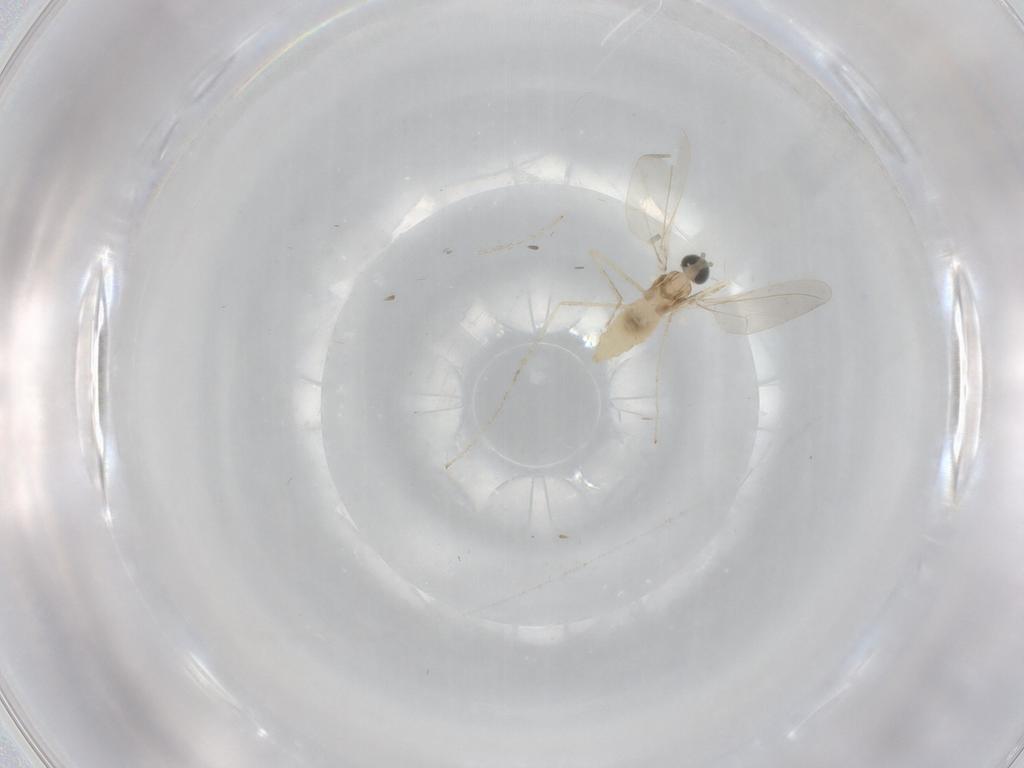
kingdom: Animalia
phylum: Arthropoda
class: Insecta
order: Diptera
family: Cecidomyiidae
